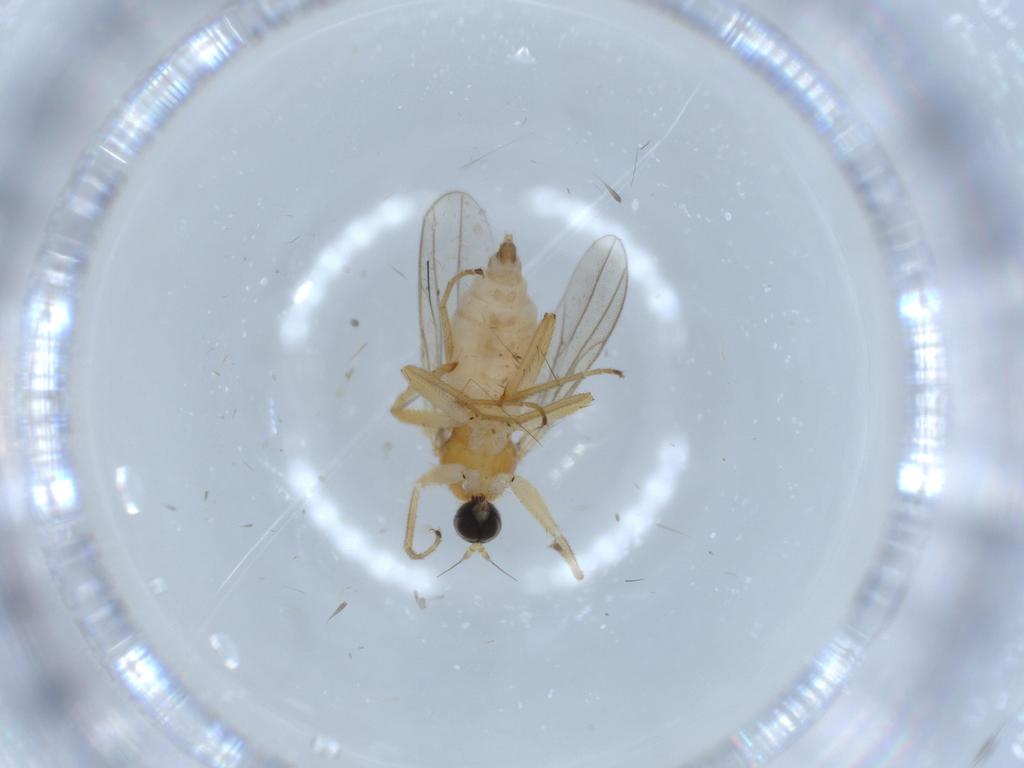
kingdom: Animalia
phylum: Arthropoda
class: Insecta
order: Diptera
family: Hybotidae
